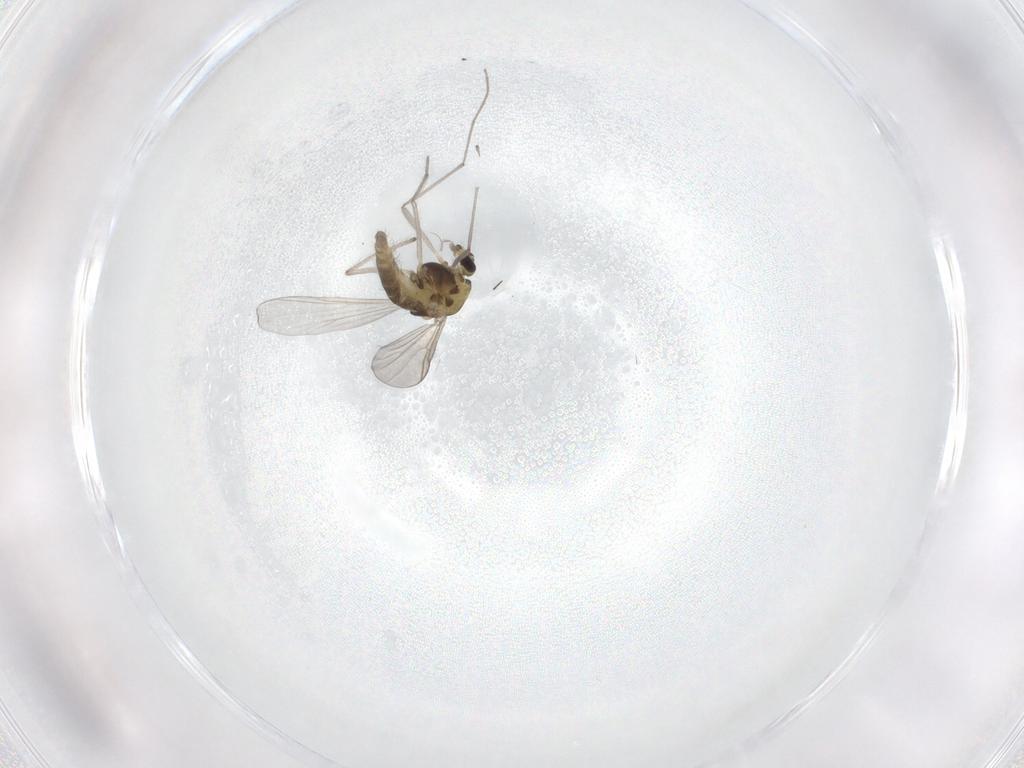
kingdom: Animalia
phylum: Arthropoda
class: Insecta
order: Diptera
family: Chironomidae
